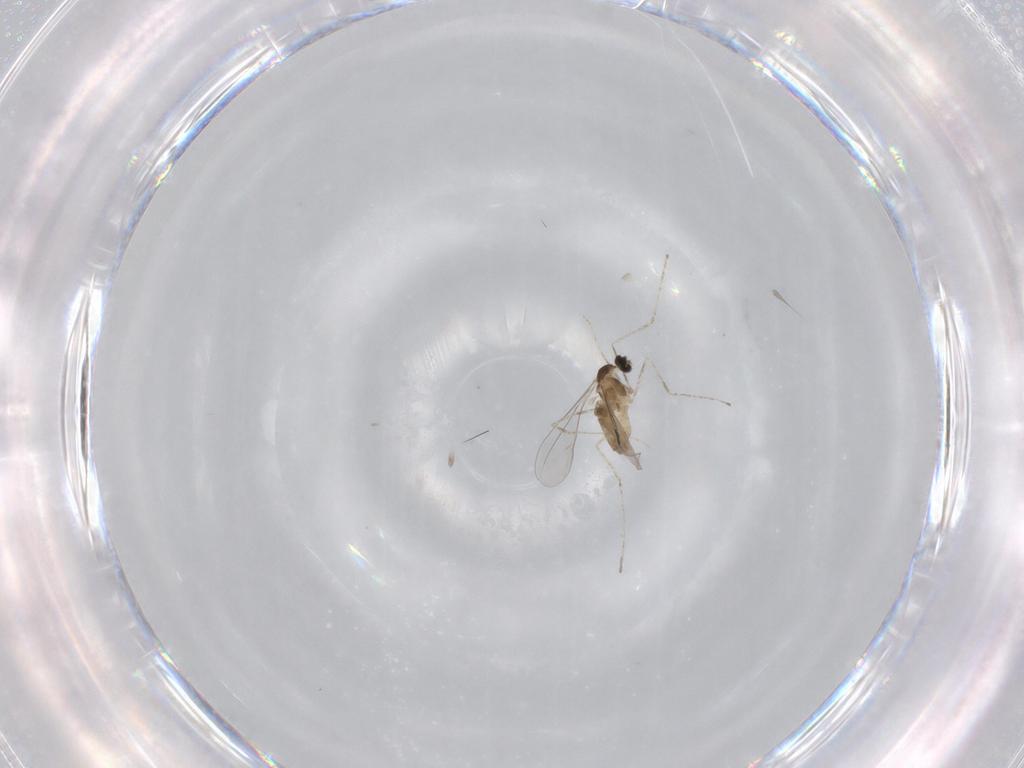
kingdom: Animalia
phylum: Arthropoda
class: Insecta
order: Diptera
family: Cecidomyiidae
